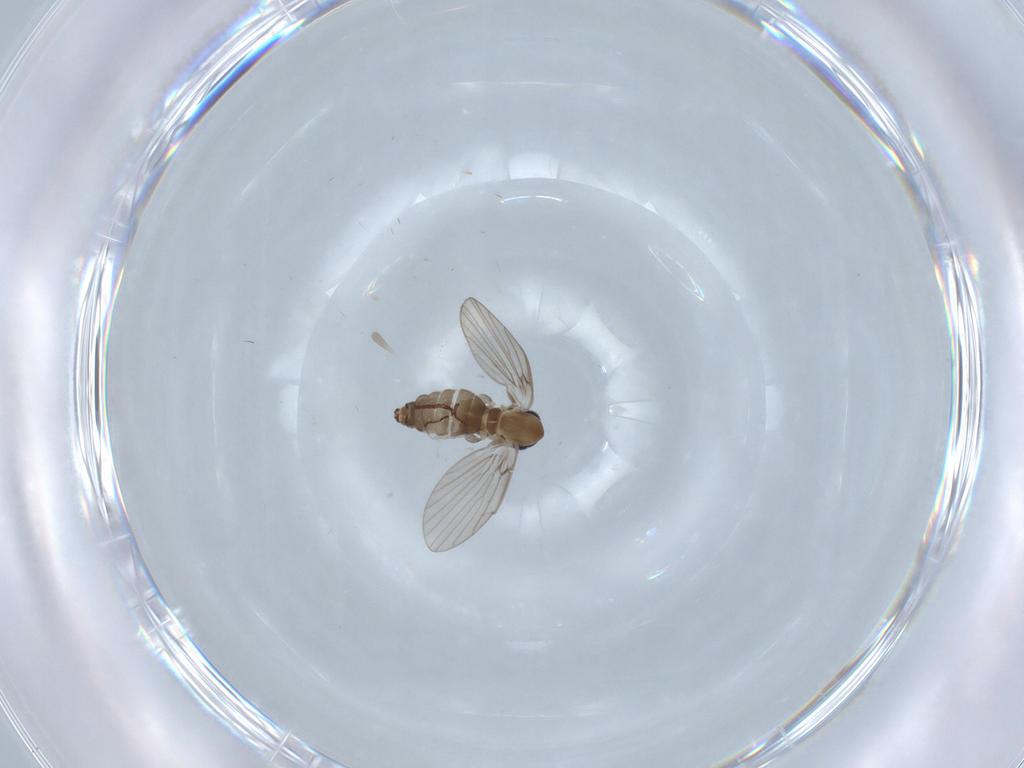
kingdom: Animalia
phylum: Arthropoda
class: Insecta
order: Diptera
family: Psychodidae
